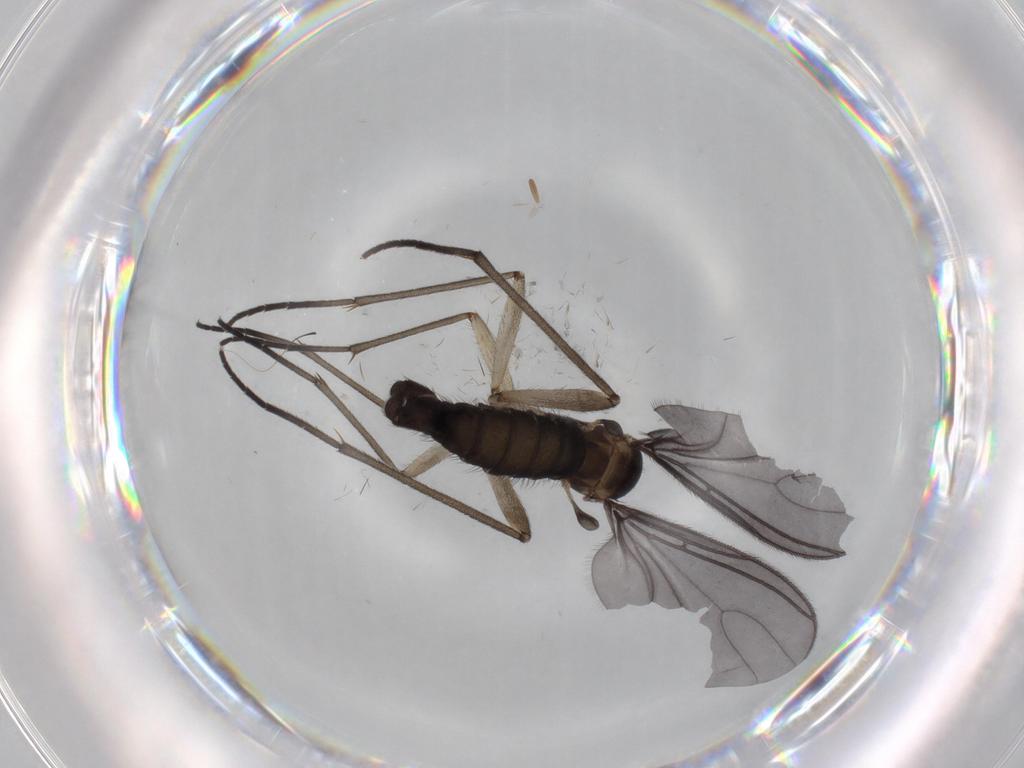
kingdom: Animalia
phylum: Arthropoda
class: Insecta
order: Diptera
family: Sciaridae
